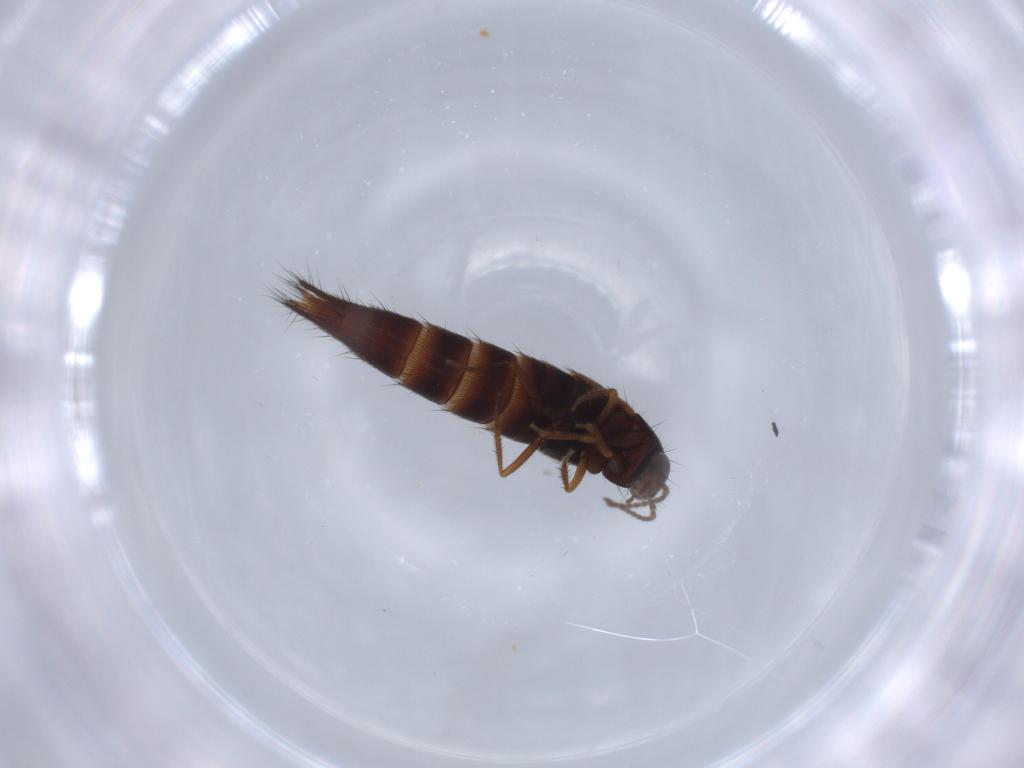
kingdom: Animalia
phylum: Arthropoda
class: Insecta
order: Coleoptera
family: Staphylinidae
